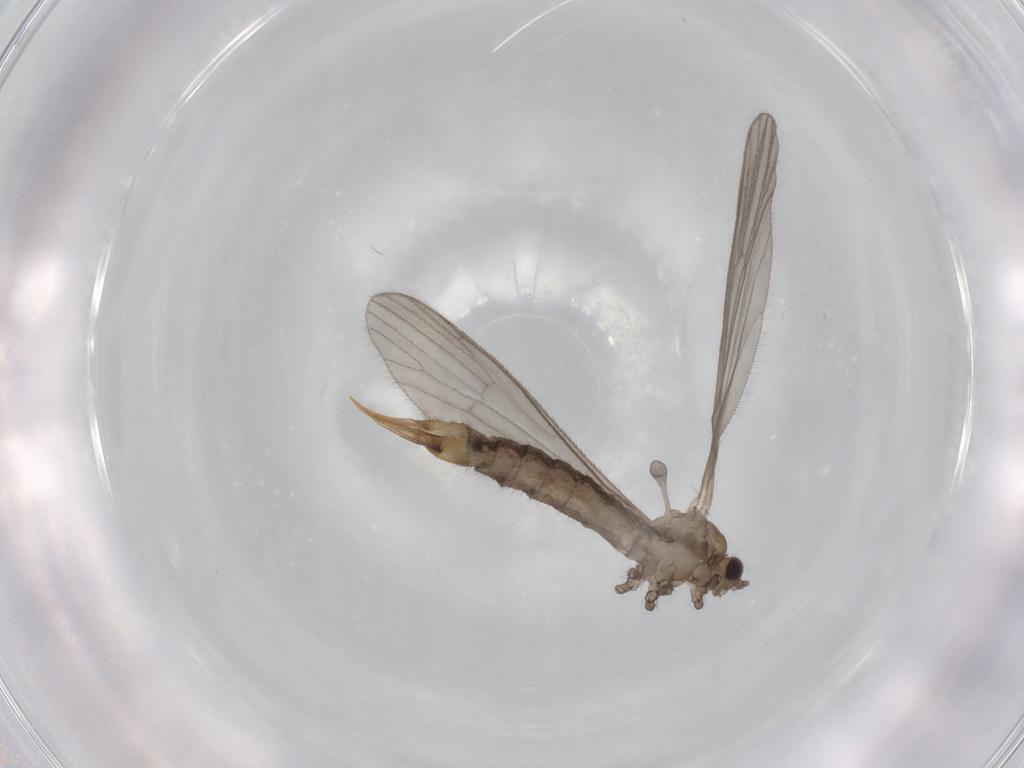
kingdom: Animalia
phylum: Arthropoda
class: Insecta
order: Diptera
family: Limoniidae
